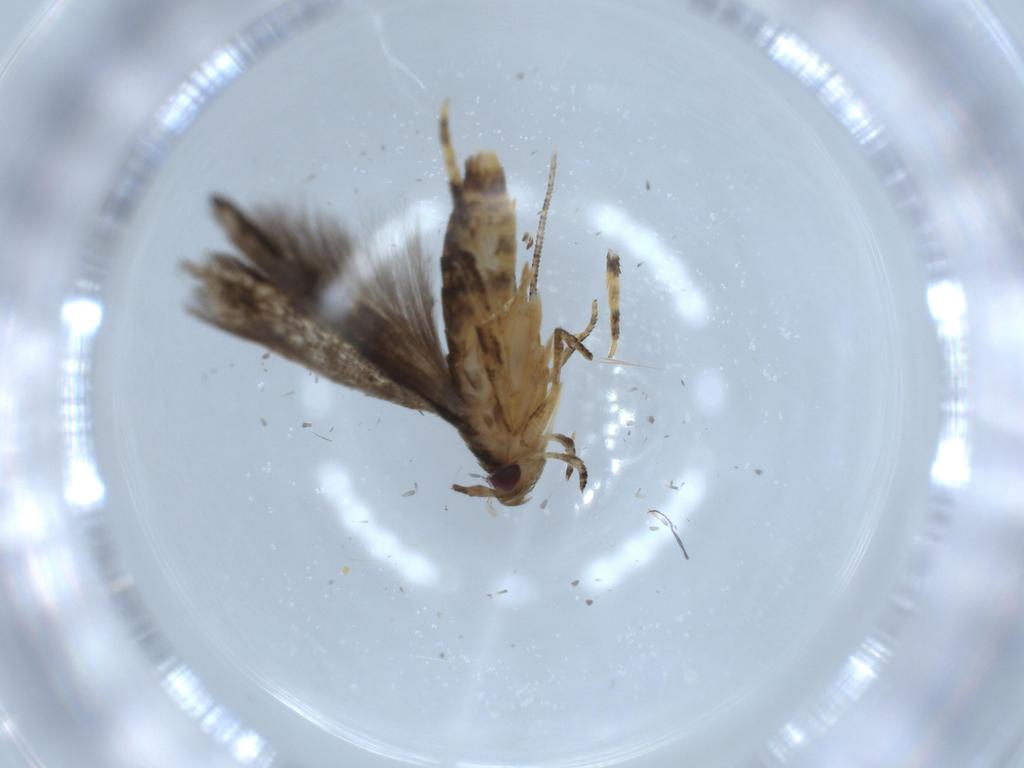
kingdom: Animalia
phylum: Arthropoda
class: Insecta
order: Lepidoptera
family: Momphidae
